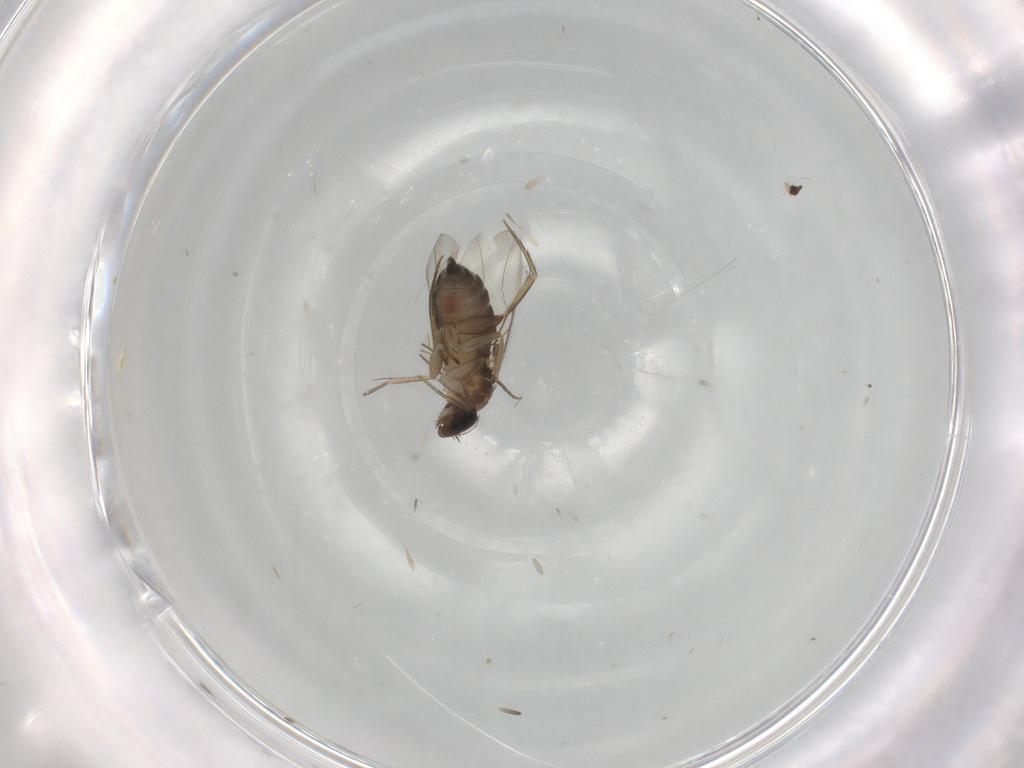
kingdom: Animalia
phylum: Arthropoda
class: Insecta
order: Diptera
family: Phoridae
